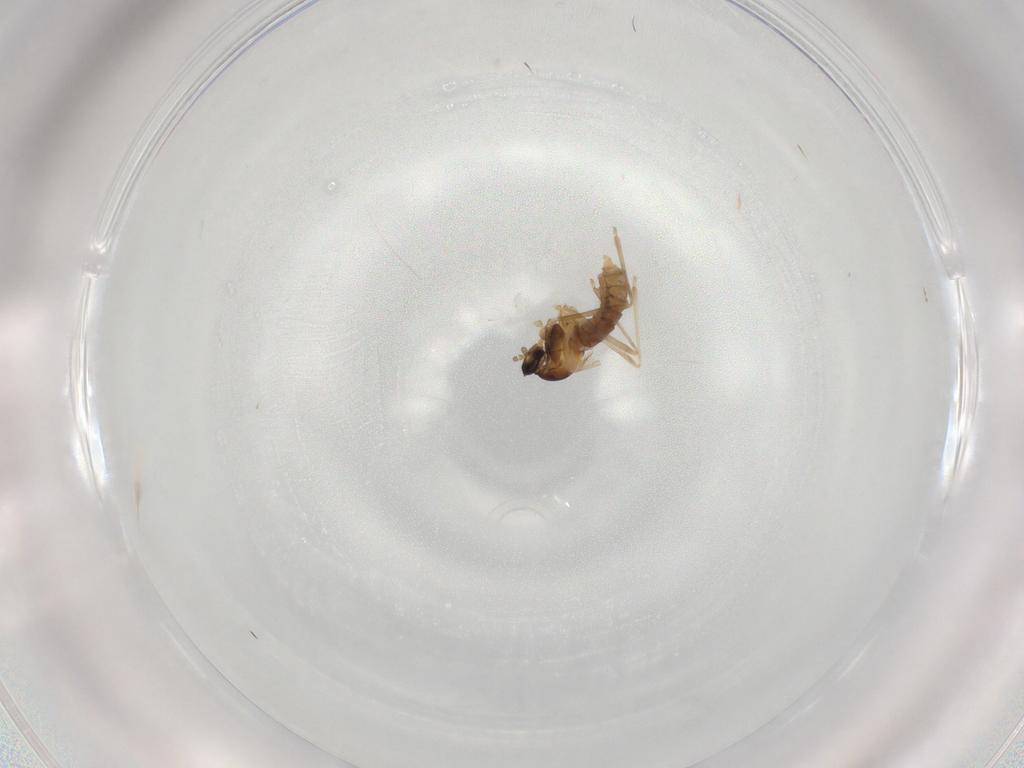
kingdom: Animalia
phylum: Arthropoda
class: Insecta
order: Diptera
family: Cecidomyiidae
